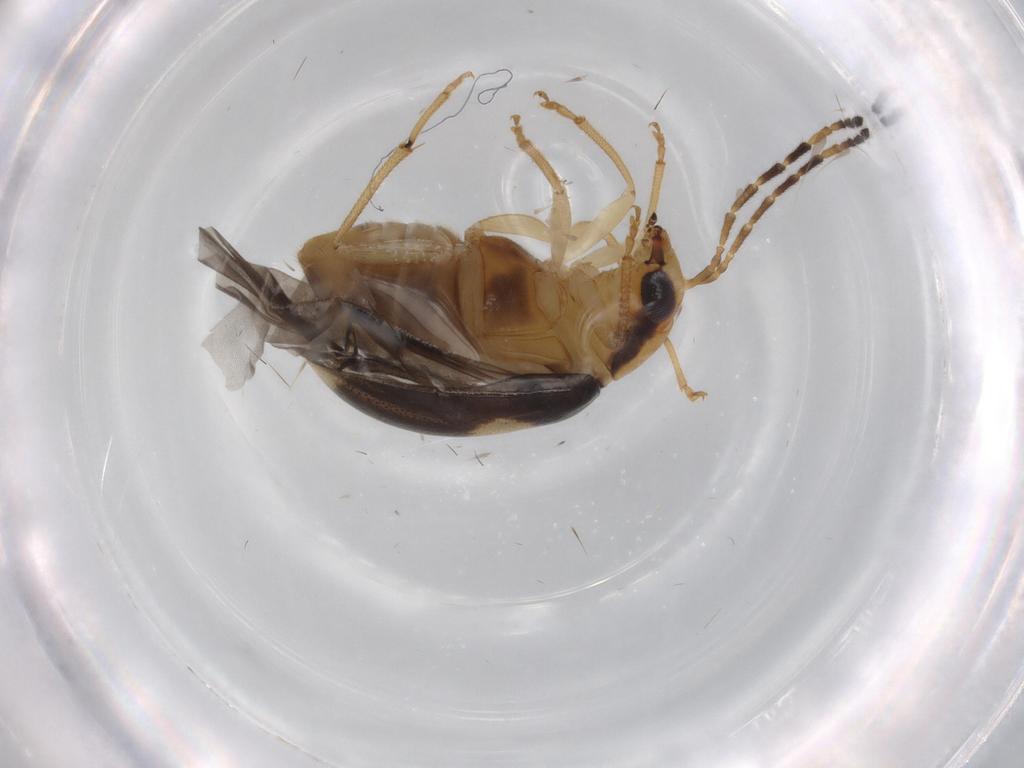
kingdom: Animalia
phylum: Arthropoda
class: Insecta
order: Coleoptera
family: Chrysomelidae
